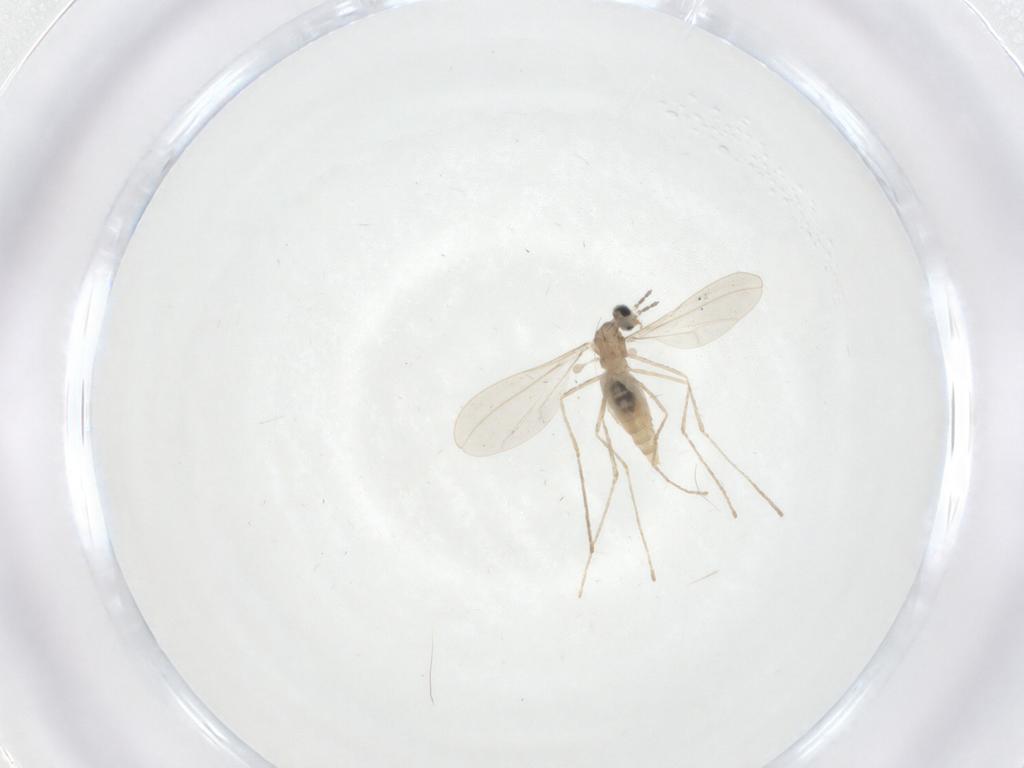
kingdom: Animalia
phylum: Arthropoda
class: Insecta
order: Diptera
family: Cecidomyiidae
